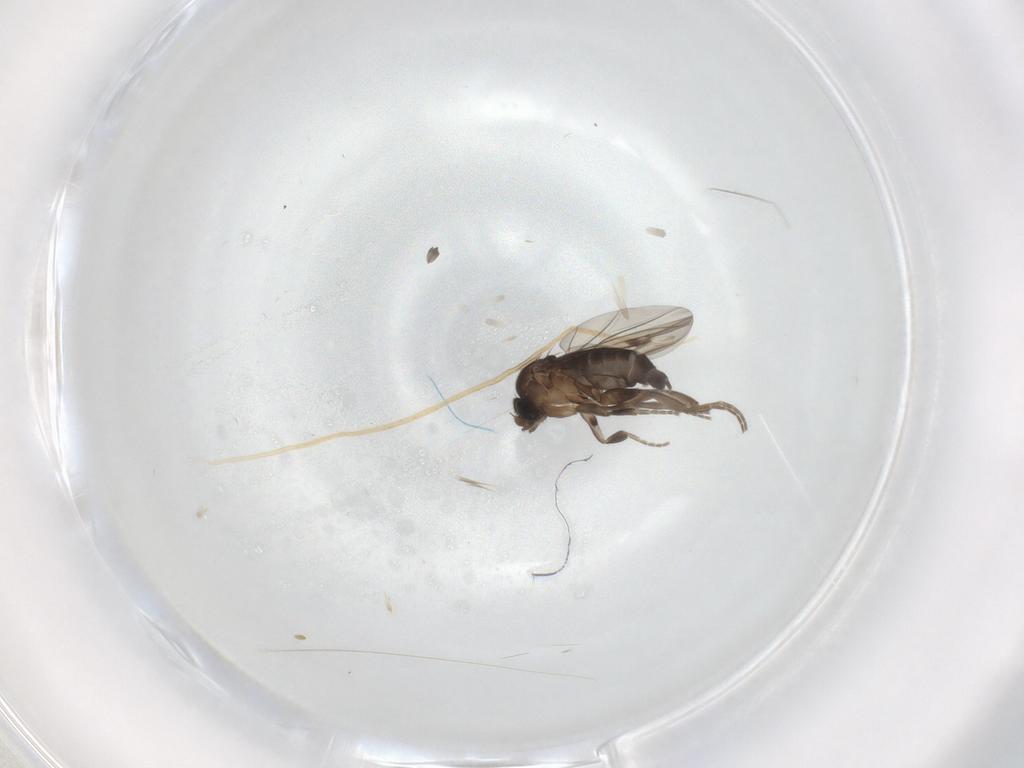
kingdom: Animalia
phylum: Arthropoda
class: Insecta
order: Diptera
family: Phoridae
